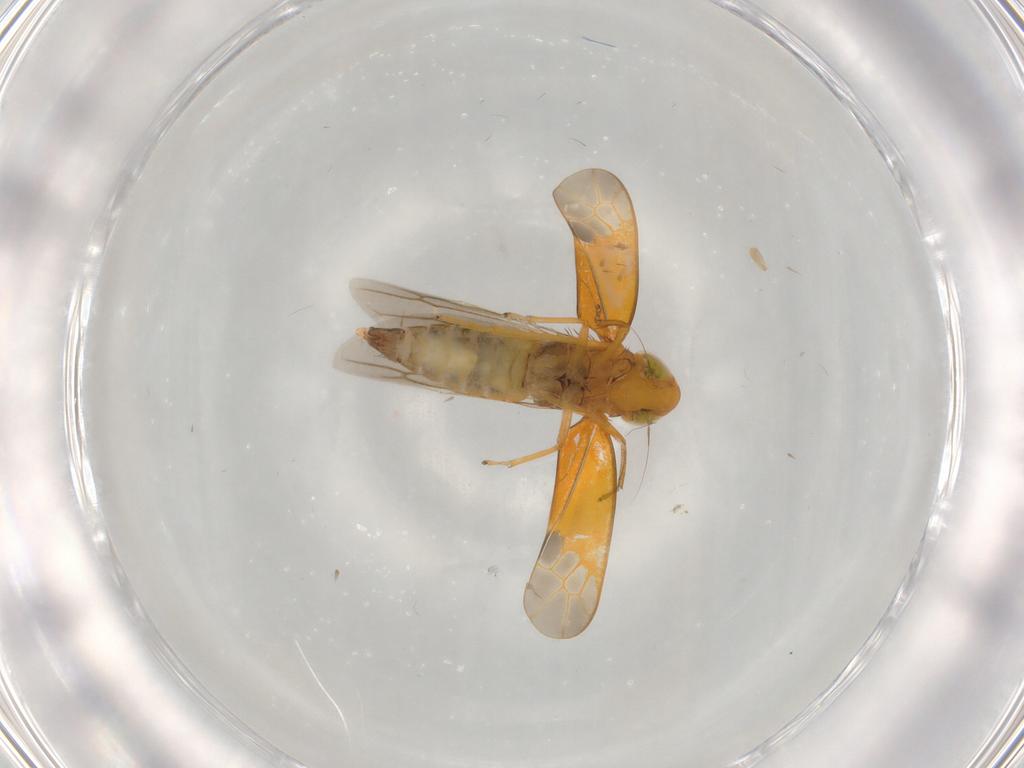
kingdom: Animalia
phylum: Arthropoda
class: Insecta
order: Hemiptera
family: Cicadellidae
